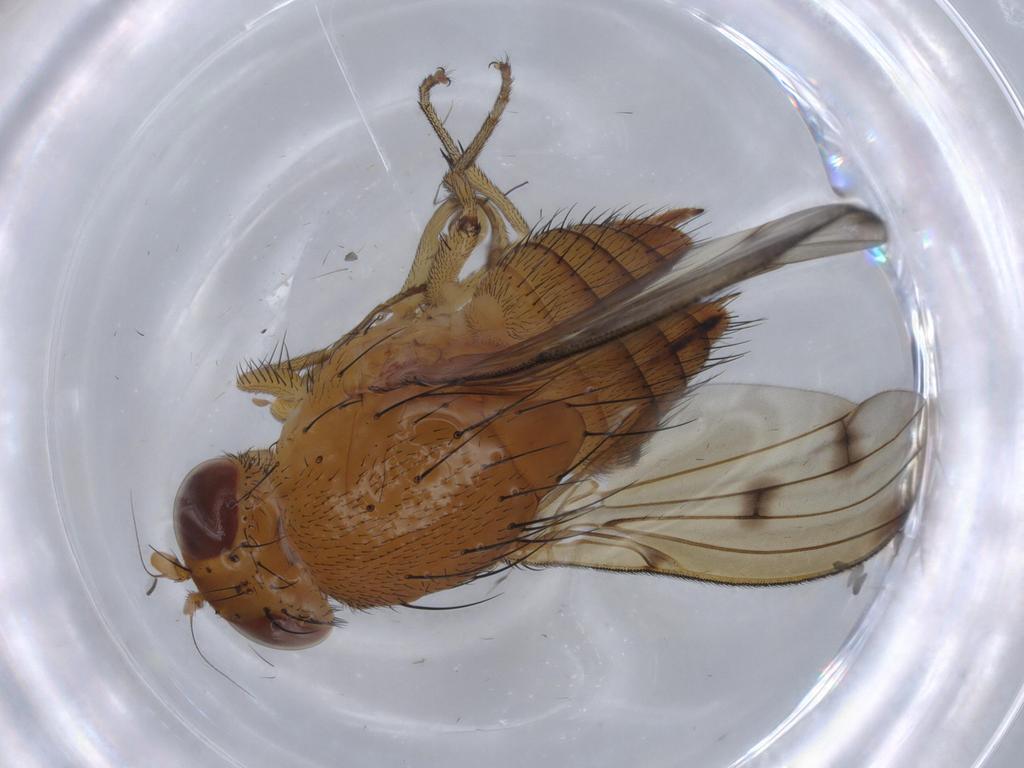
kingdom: Animalia
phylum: Arthropoda
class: Insecta
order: Diptera
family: Cecidomyiidae
